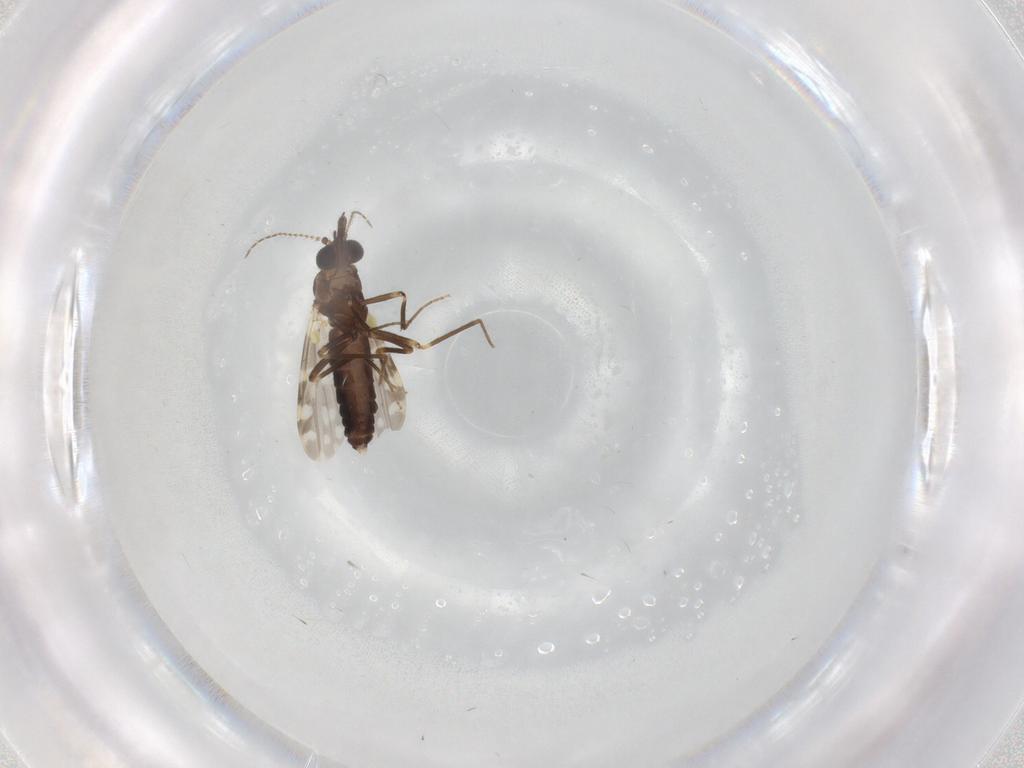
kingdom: Animalia
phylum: Arthropoda
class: Insecta
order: Diptera
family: Ceratopogonidae
